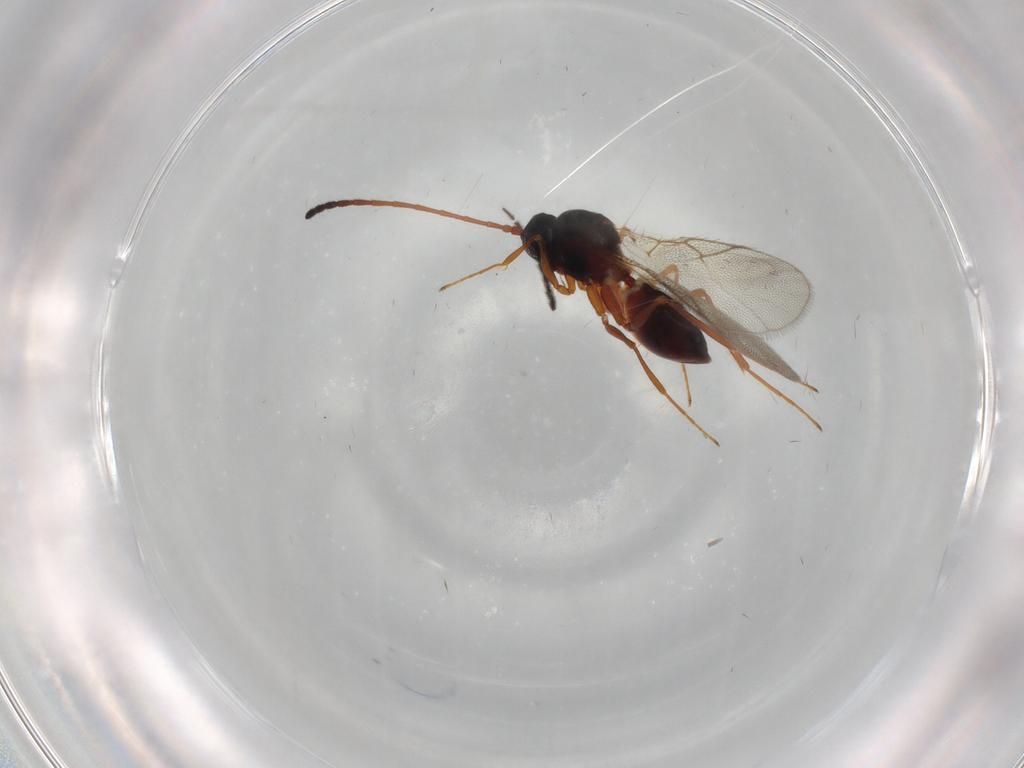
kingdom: Animalia
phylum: Arthropoda
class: Insecta
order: Hymenoptera
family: Figitidae
